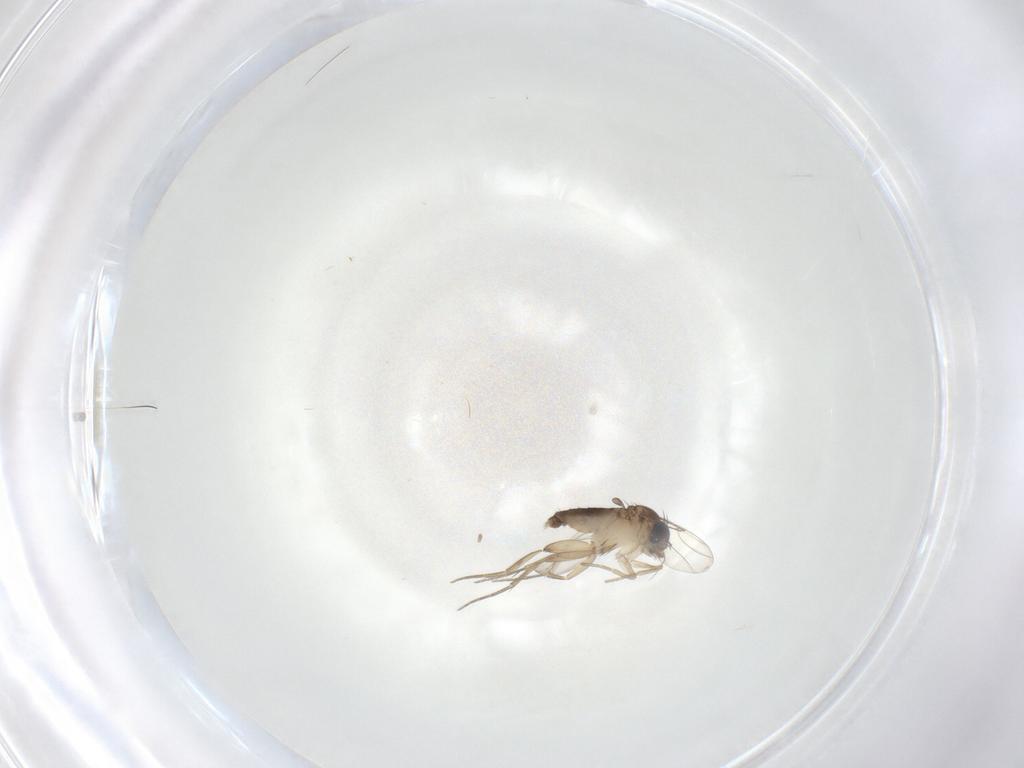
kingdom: Animalia
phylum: Arthropoda
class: Insecta
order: Diptera
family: Phoridae
